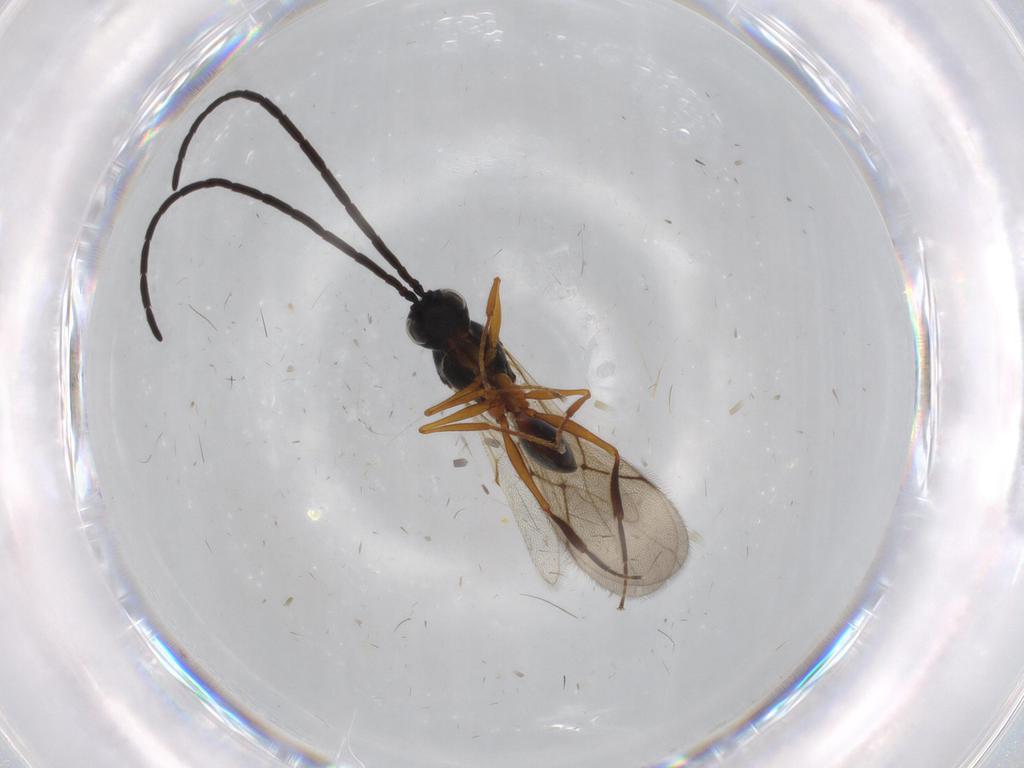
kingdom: Animalia
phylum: Arthropoda
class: Insecta
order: Hymenoptera
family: Figitidae
